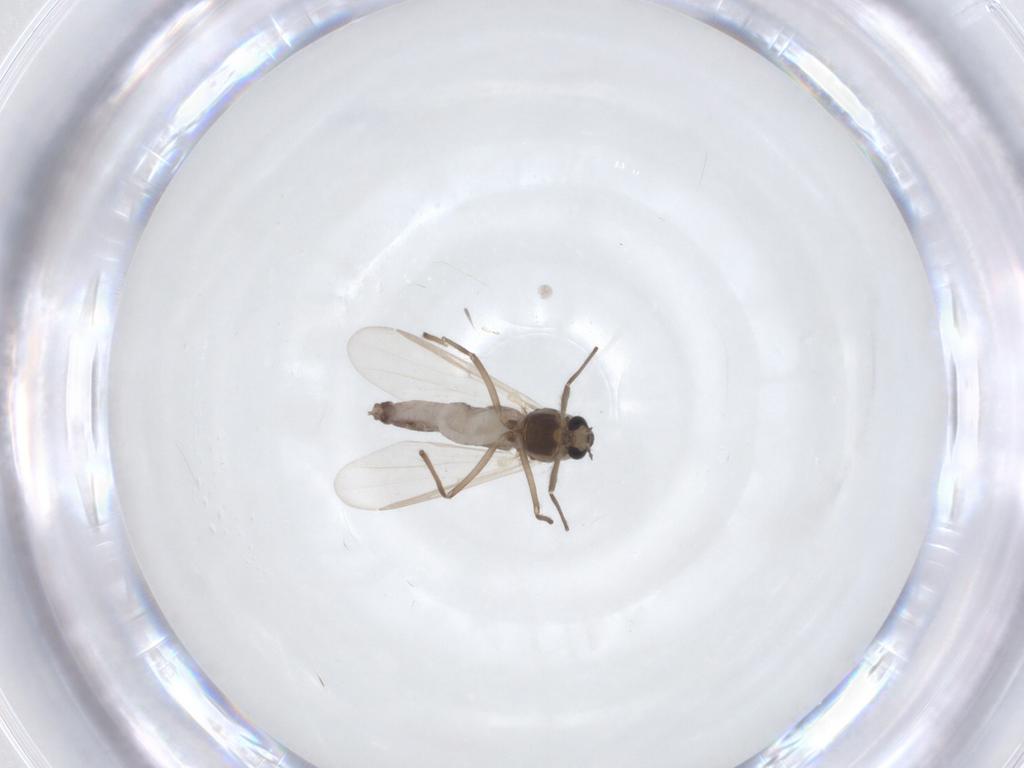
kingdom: Animalia
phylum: Arthropoda
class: Insecta
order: Diptera
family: Chironomidae
